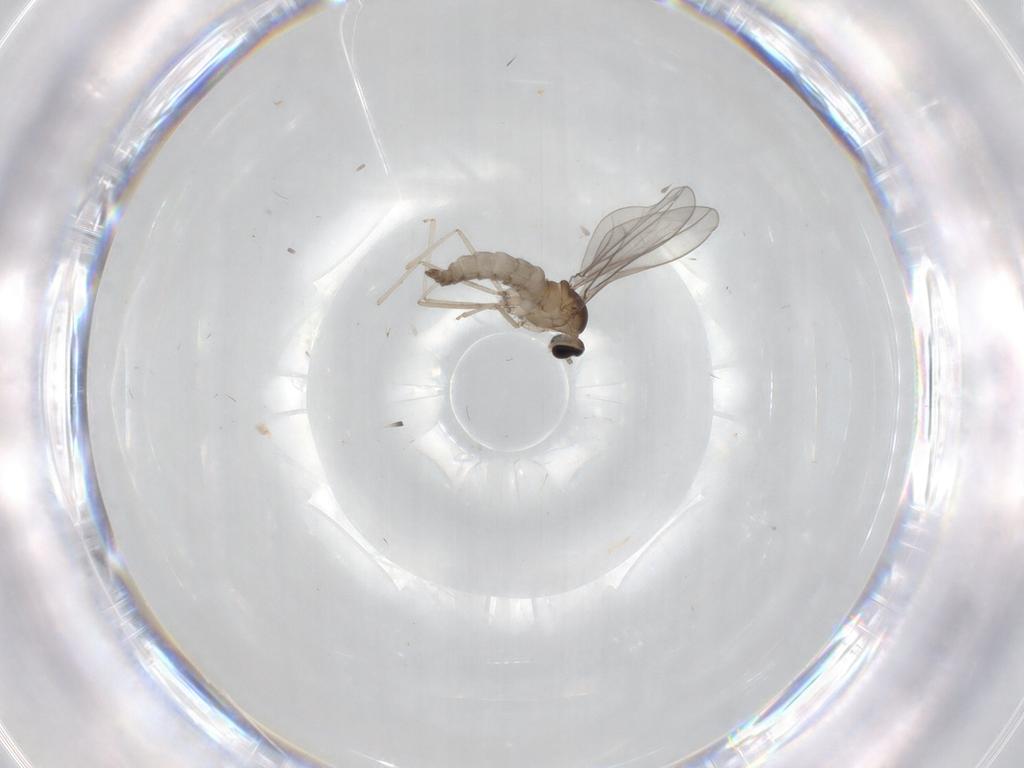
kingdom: Animalia
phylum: Arthropoda
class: Insecta
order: Diptera
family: Cecidomyiidae
